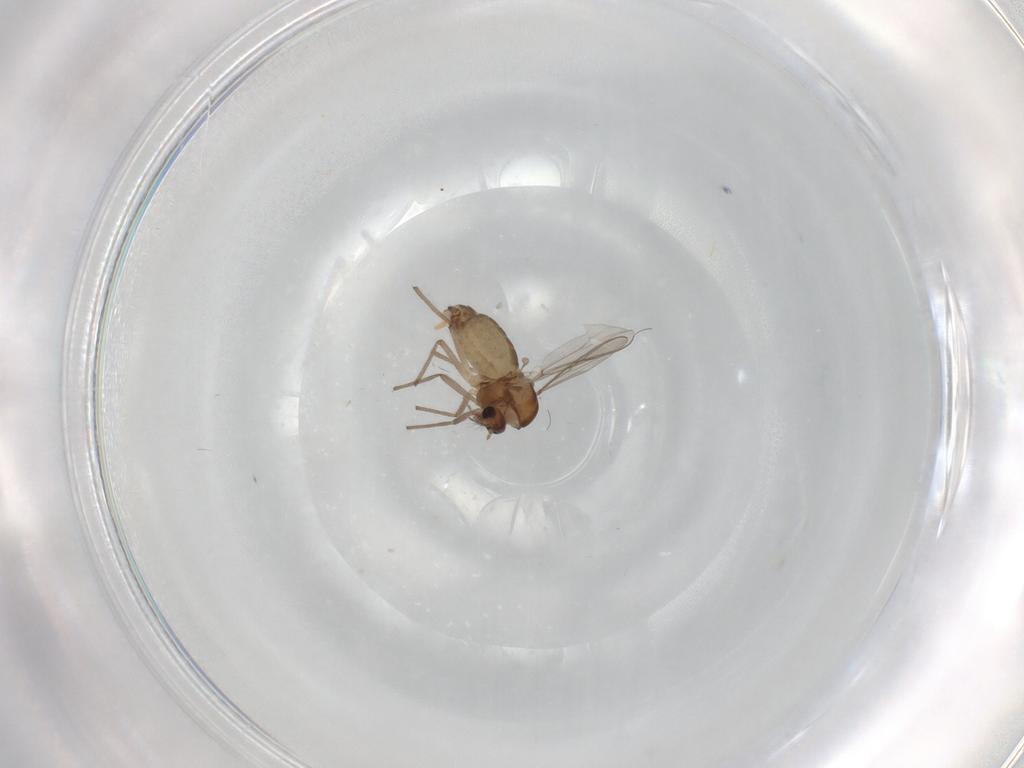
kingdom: Animalia
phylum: Arthropoda
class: Insecta
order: Diptera
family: Chironomidae
